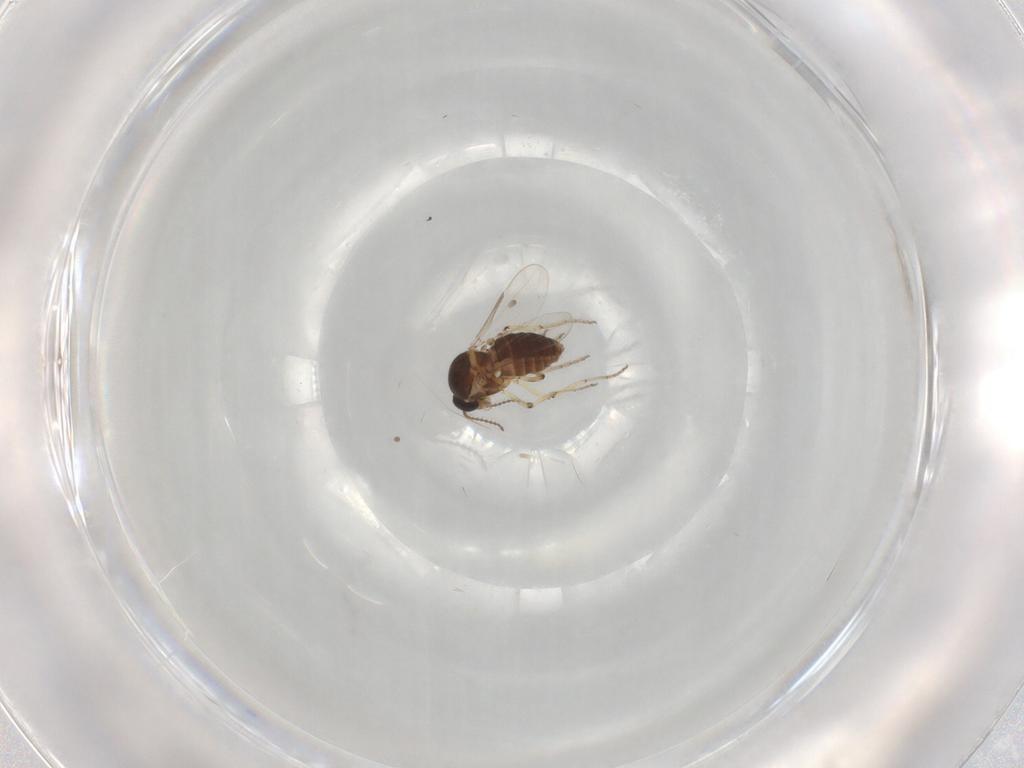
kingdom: Animalia
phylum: Arthropoda
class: Insecta
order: Diptera
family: Chironomidae
